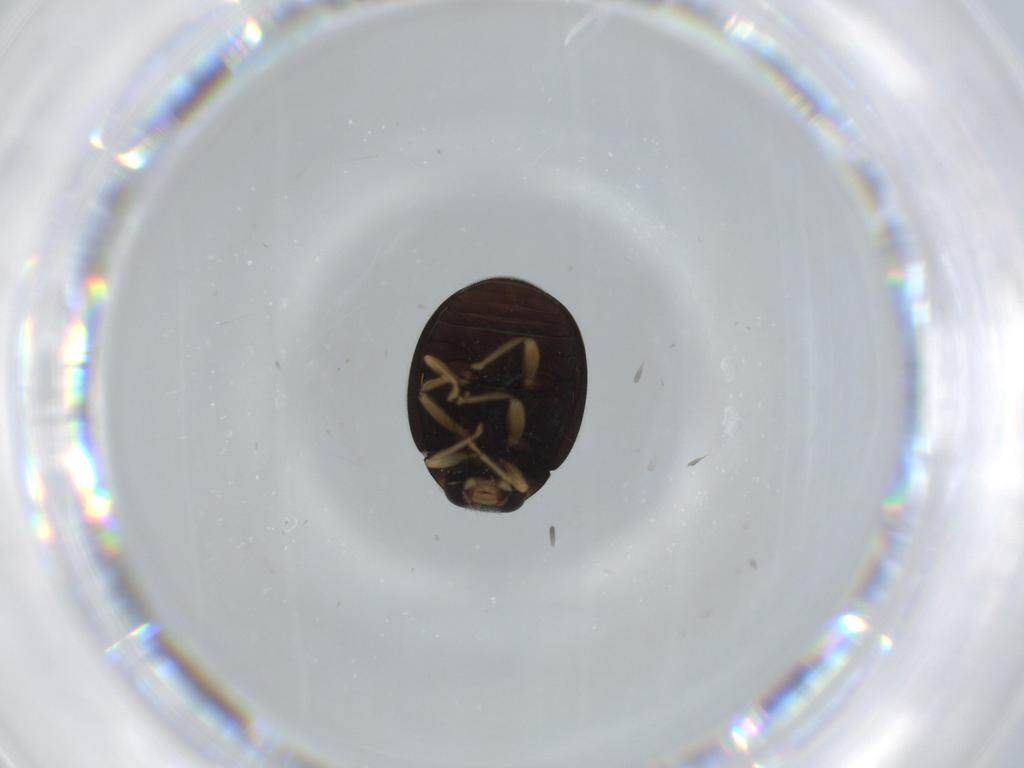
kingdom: Animalia
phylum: Arthropoda
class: Insecta
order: Coleoptera
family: Coccinellidae
